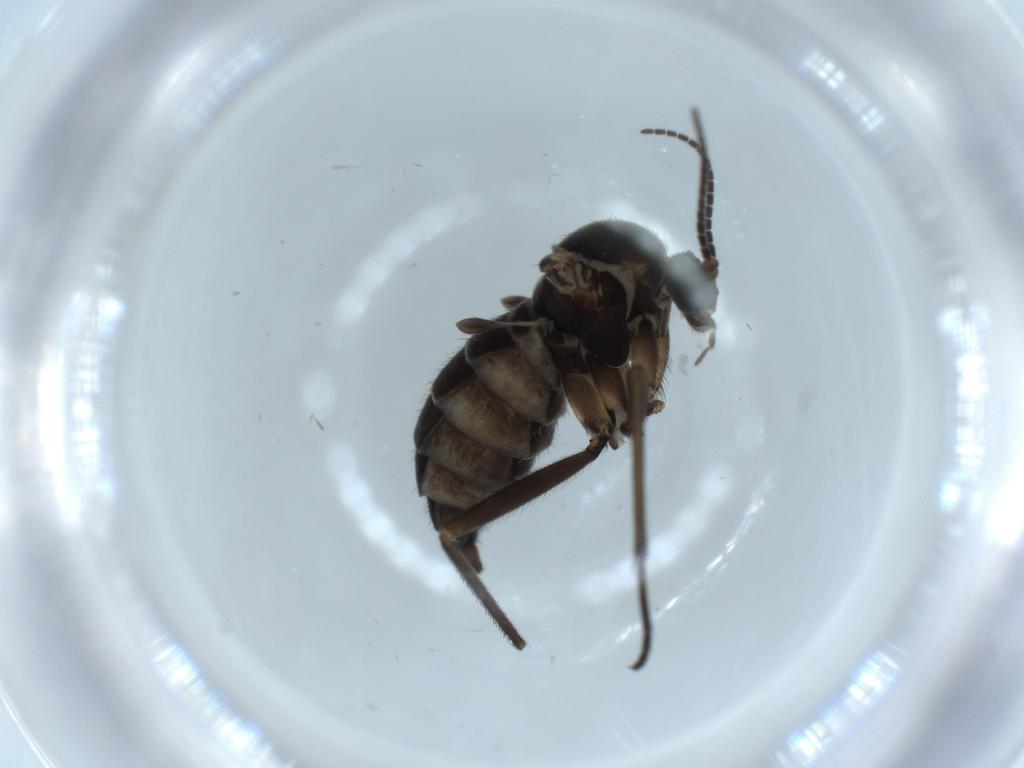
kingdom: Animalia
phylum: Arthropoda
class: Insecta
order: Diptera
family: Sciaridae
